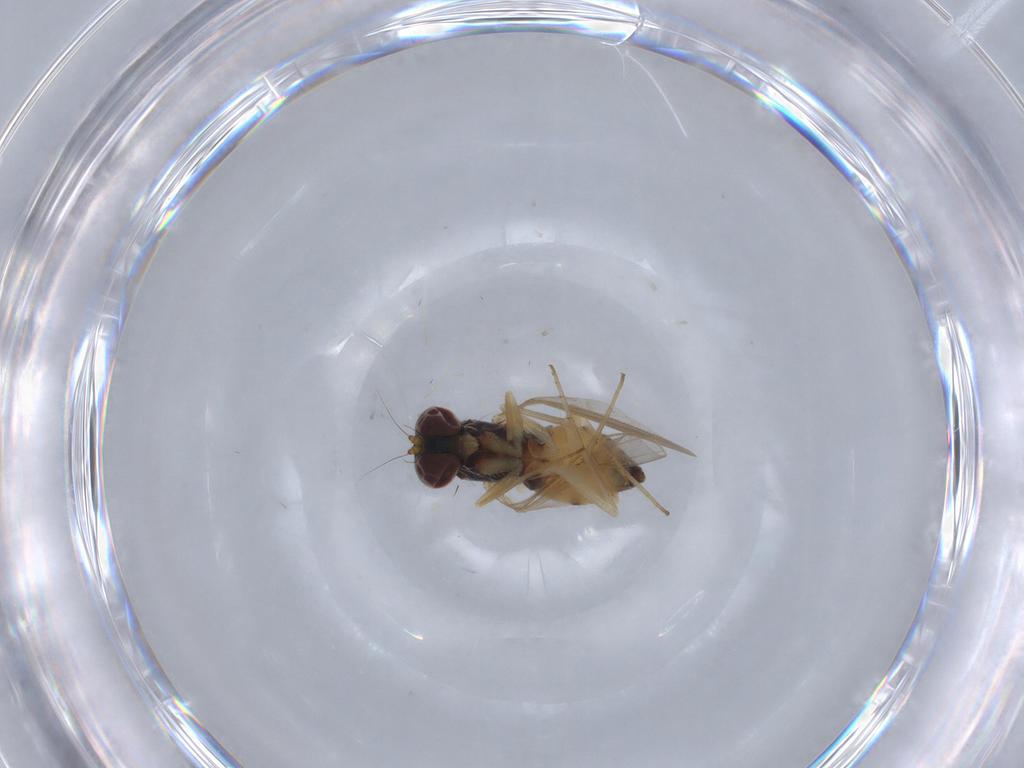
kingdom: Animalia
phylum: Arthropoda
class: Insecta
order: Diptera
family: Dolichopodidae
